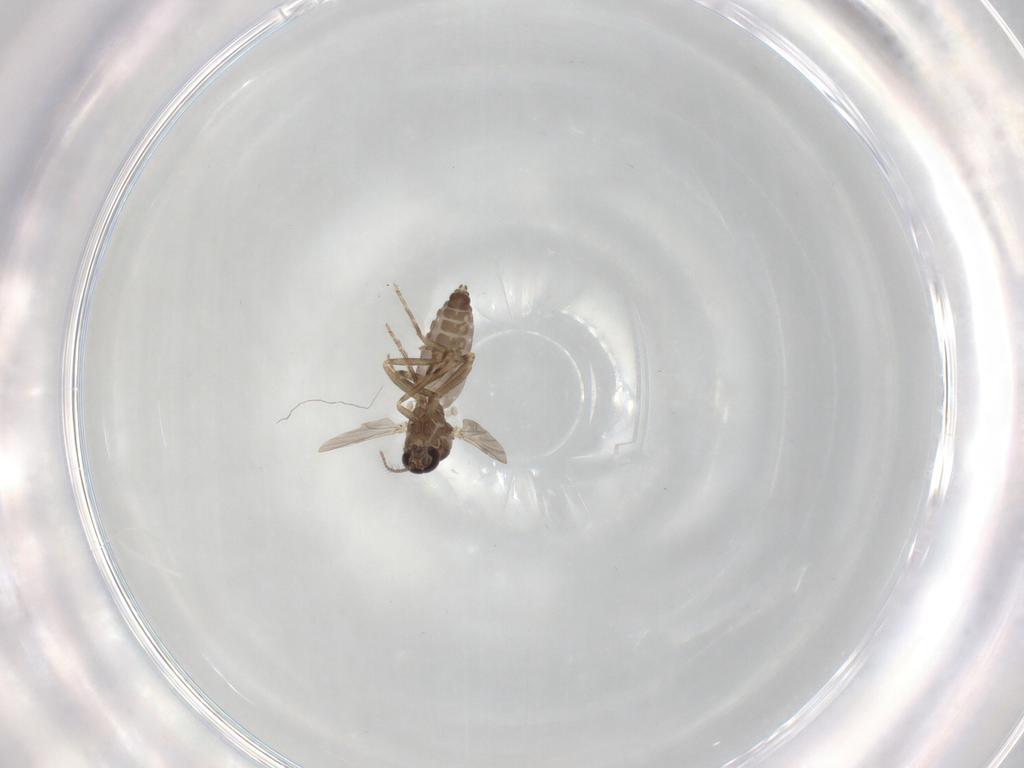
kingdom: Animalia
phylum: Arthropoda
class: Insecta
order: Diptera
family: Ceratopogonidae
